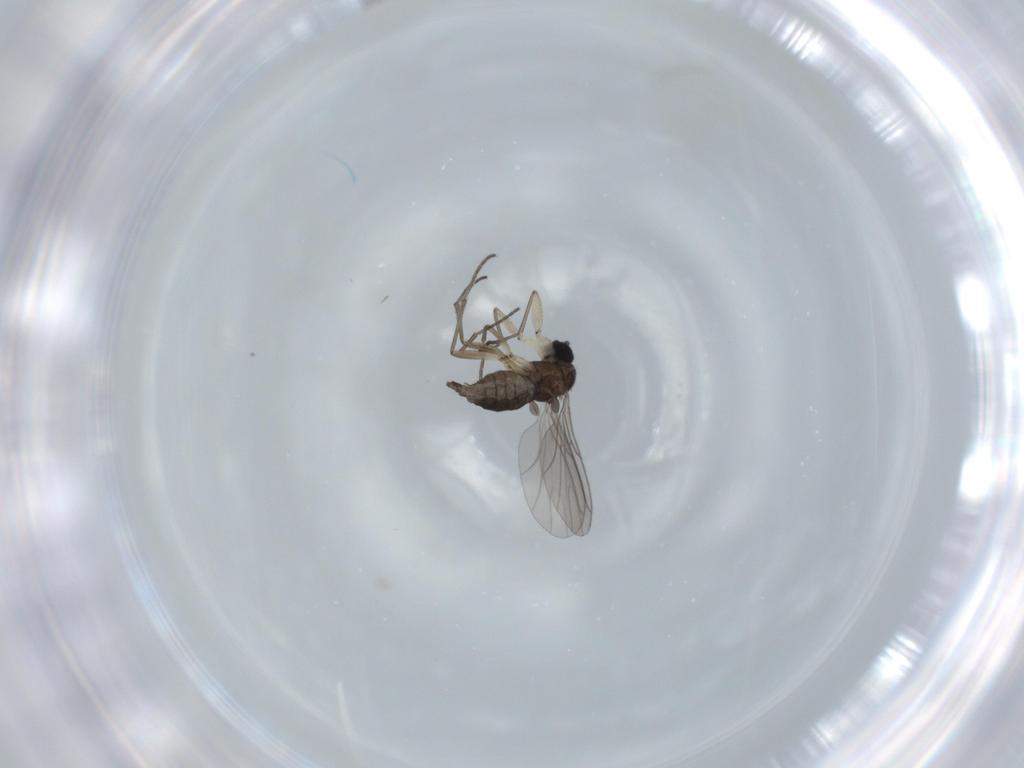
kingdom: Animalia
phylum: Arthropoda
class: Insecta
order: Diptera
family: Sciaridae
